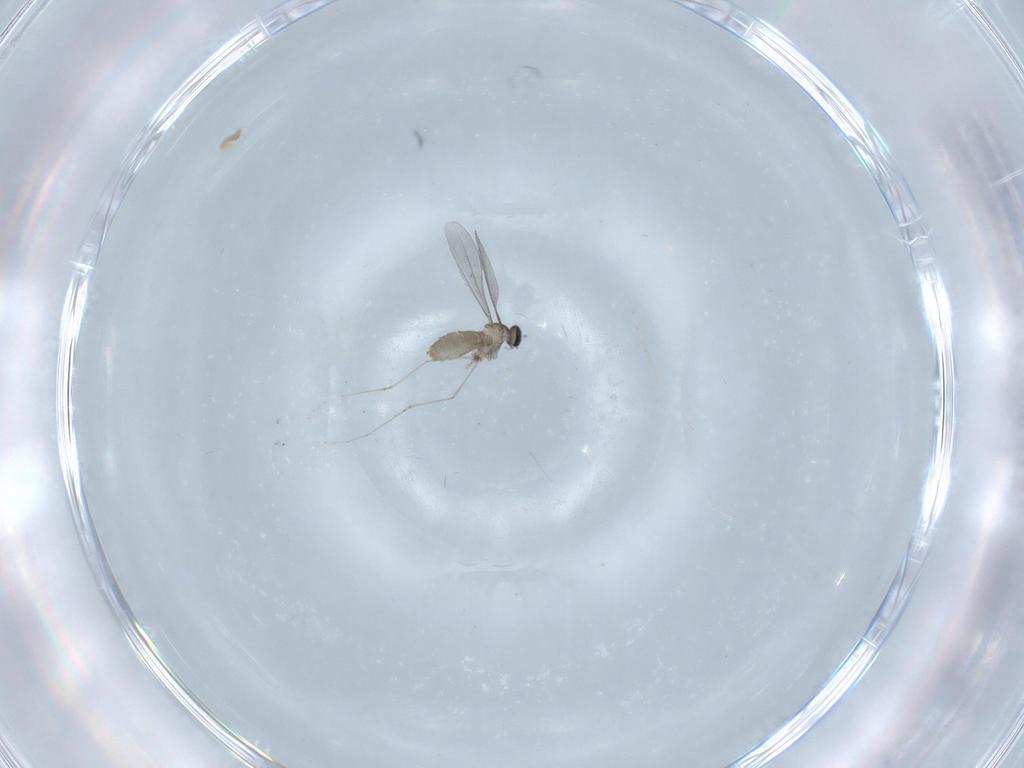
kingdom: Animalia
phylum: Arthropoda
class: Insecta
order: Diptera
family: Cecidomyiidae
